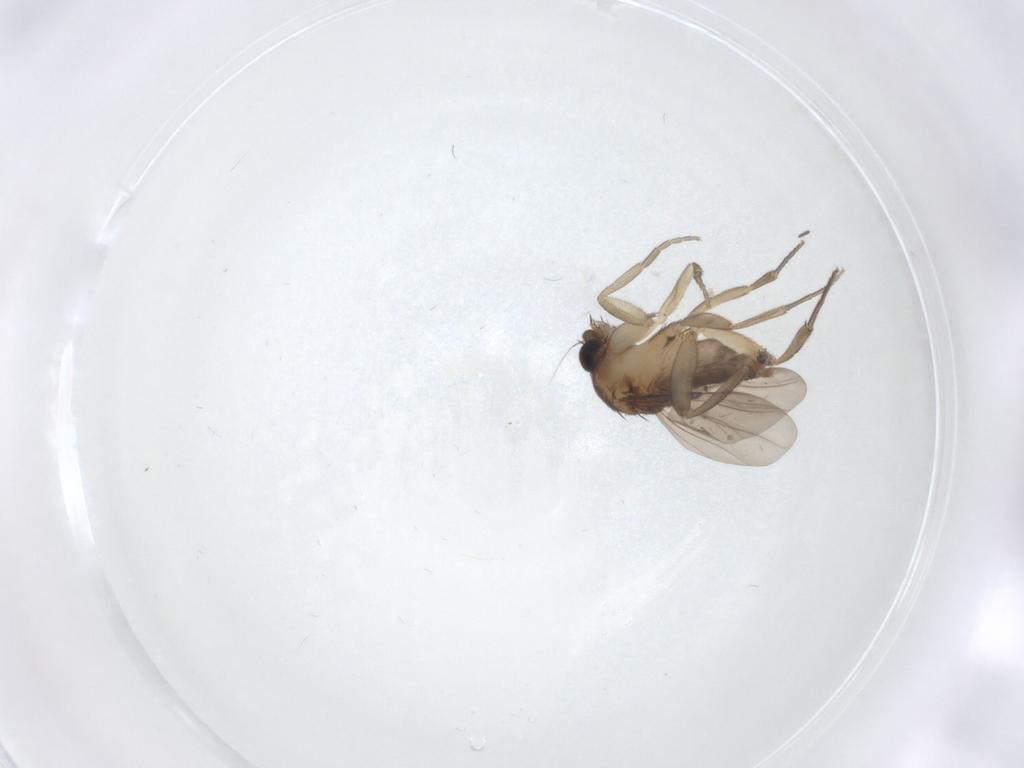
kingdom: Animalia
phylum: Arthropoda
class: Insecta
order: Diptera
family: Phoridae
